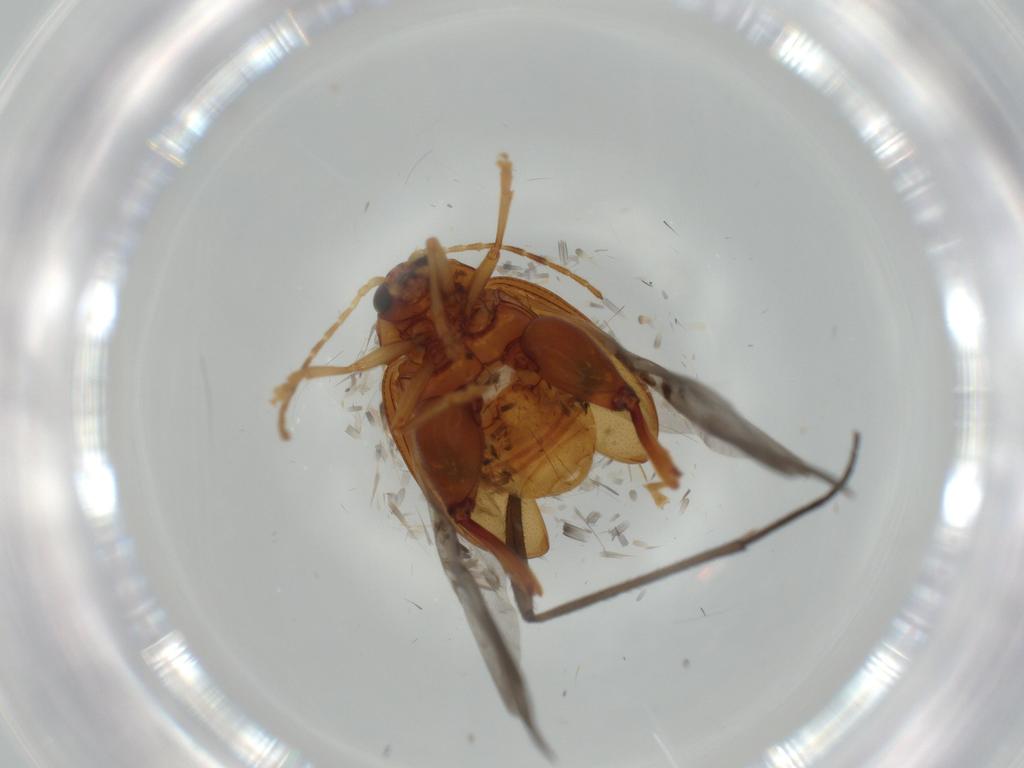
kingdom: Animalia
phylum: Arthropoda
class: Insecta
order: Coleoptera
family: Chrysomelidae
